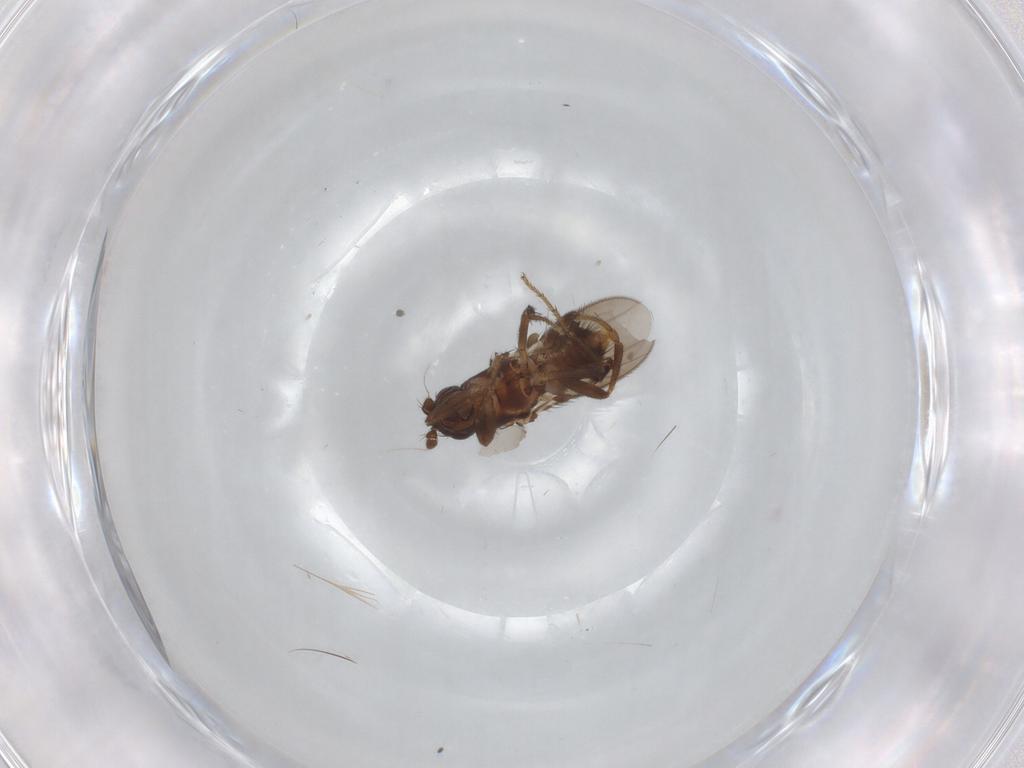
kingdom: Animalia
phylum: Arthropoda
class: Insecta
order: Diptera
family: Sphaeroceridae
